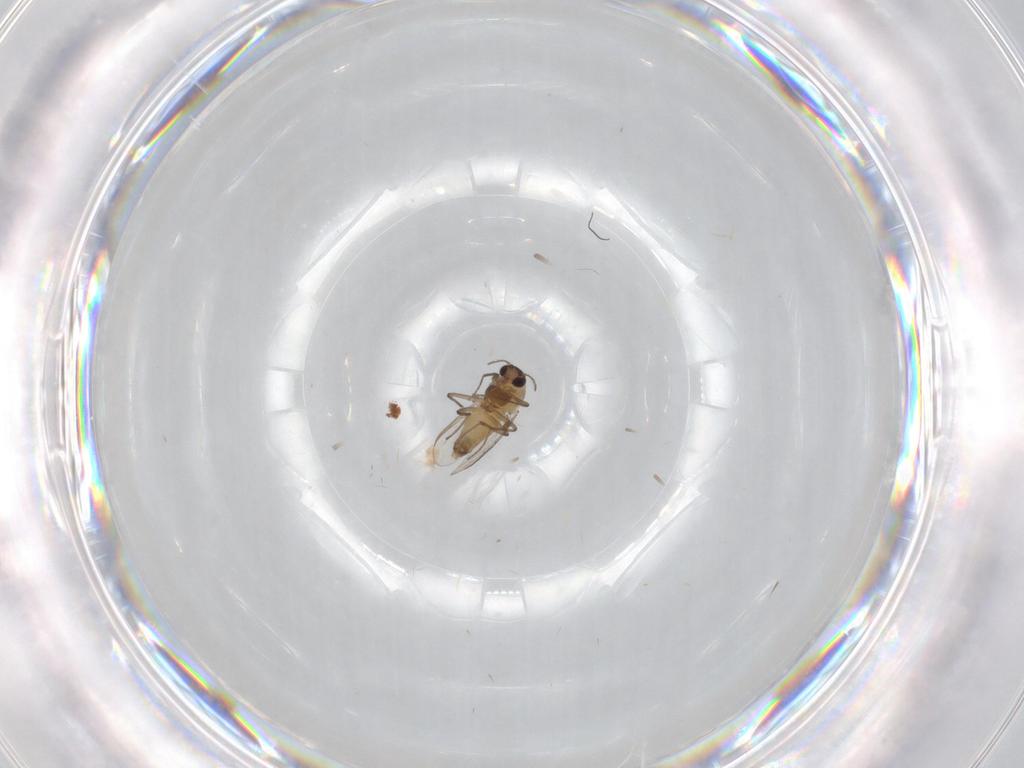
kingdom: Animalia
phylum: Arthropoda
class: Insecta
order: Diptera
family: Chironomidae
